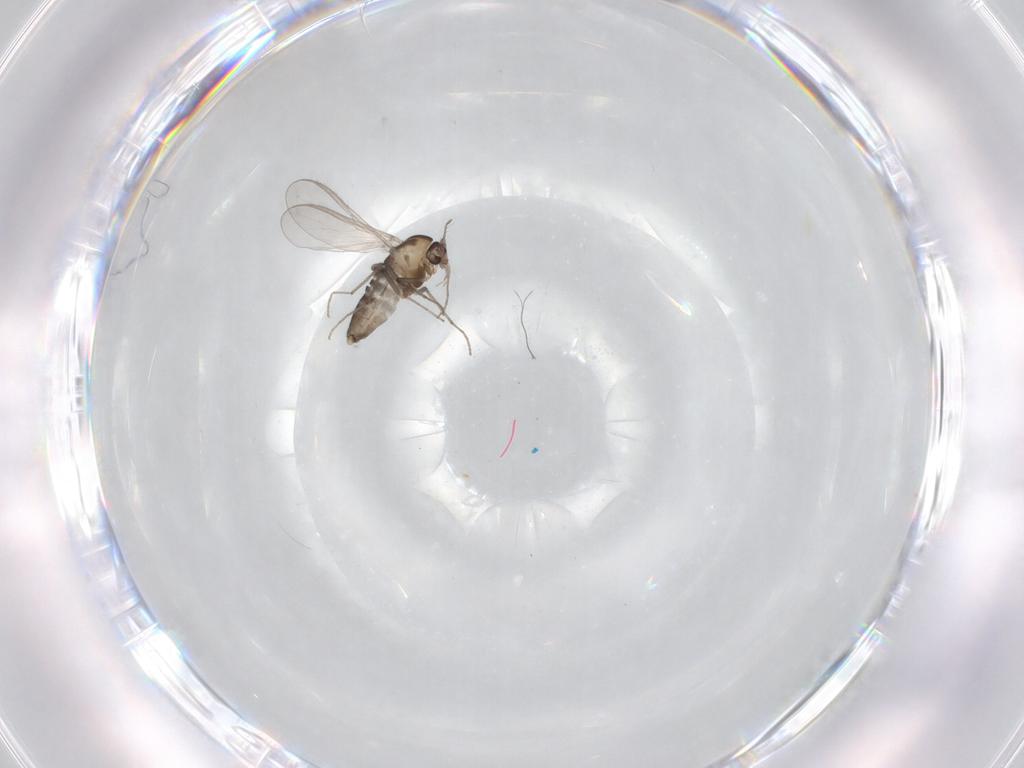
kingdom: Animalia
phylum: Arthropoda
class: Insecta
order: Diptera
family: Chironomidae
